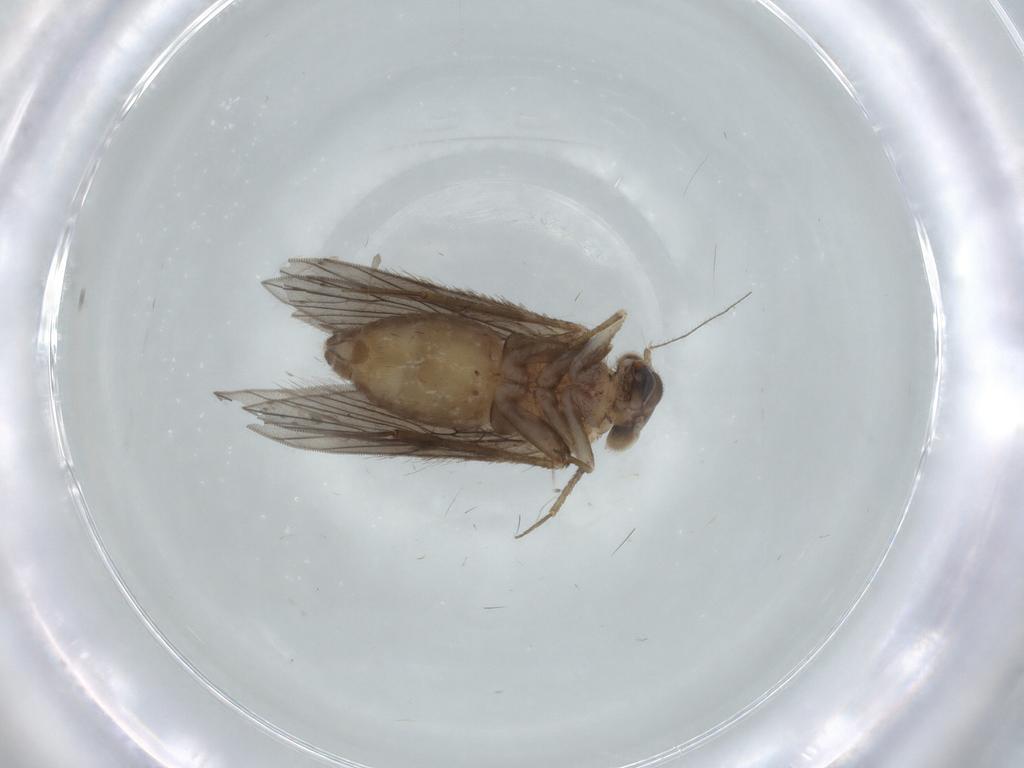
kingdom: Animalia
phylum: Arthropoda
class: Insecta
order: Psocodea
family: Lepidopsocidae
